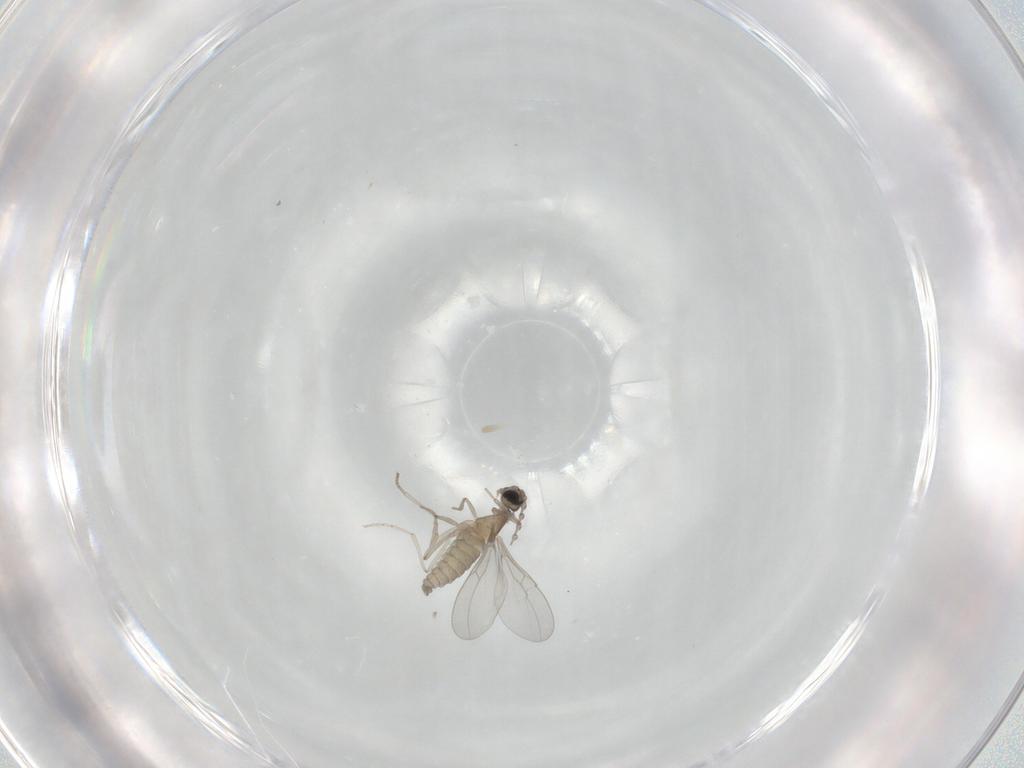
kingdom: Animalia
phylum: Arthropoda
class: Insecta
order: Diptera
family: Cecidomyiidae
